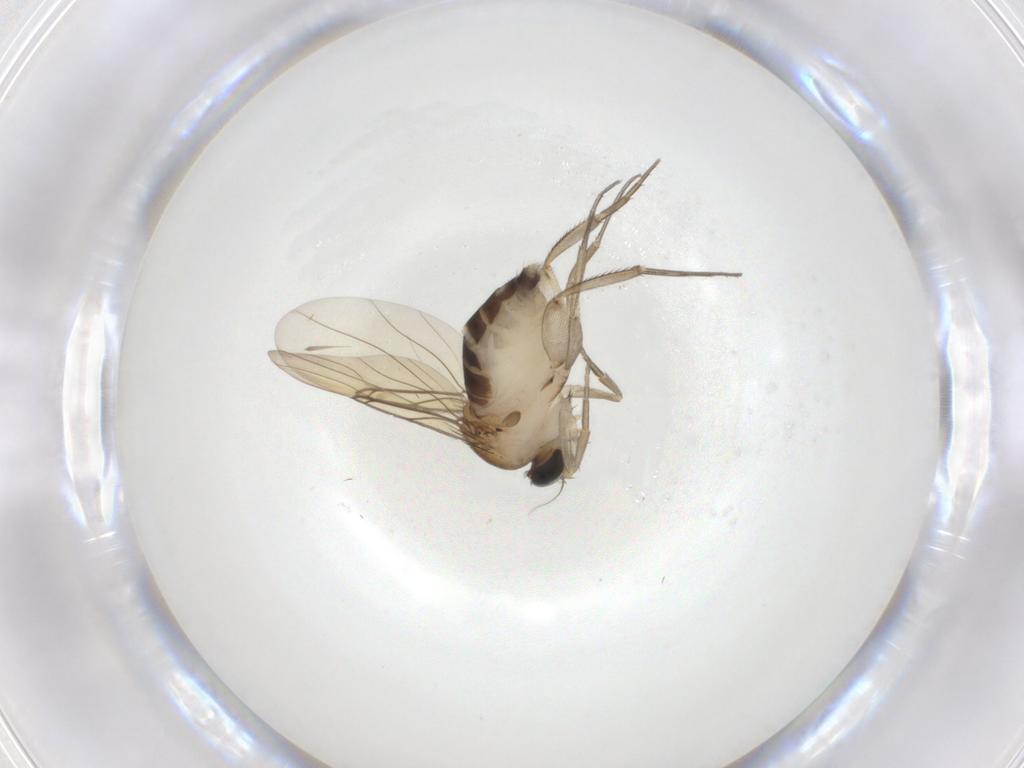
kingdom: Animalia
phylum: Arthropoda
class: Insecta
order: Diptera
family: Phoridae
